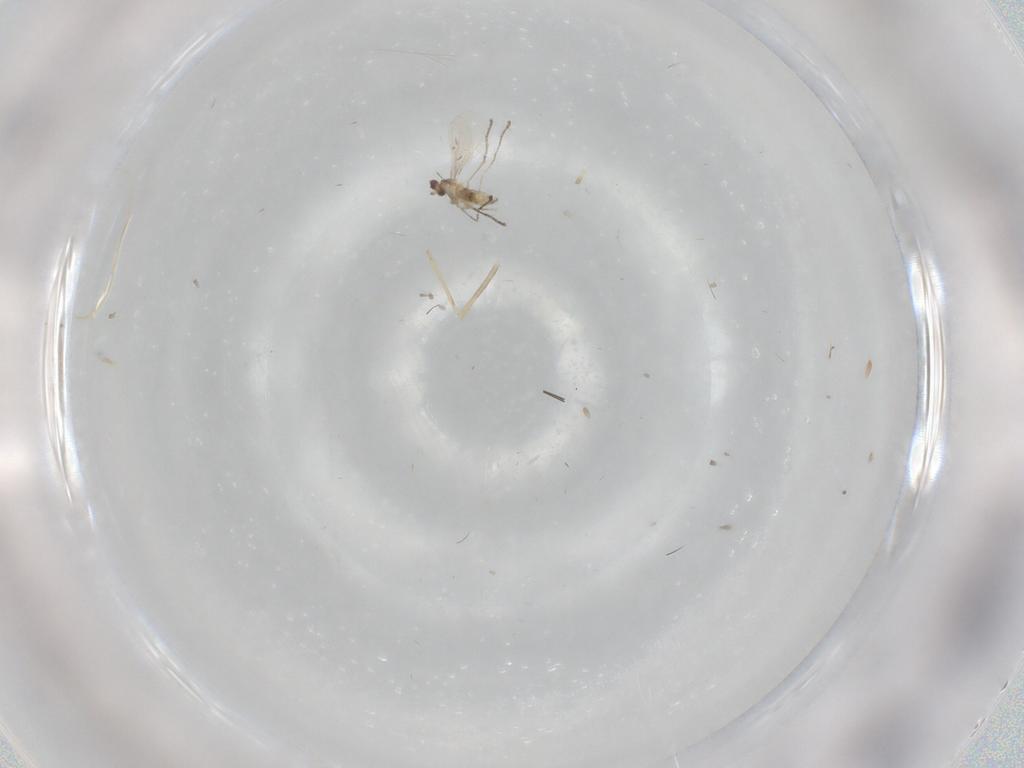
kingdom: Animalia
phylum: Arthropoda
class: Insecta
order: Diptera
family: Cecidomyiidae
